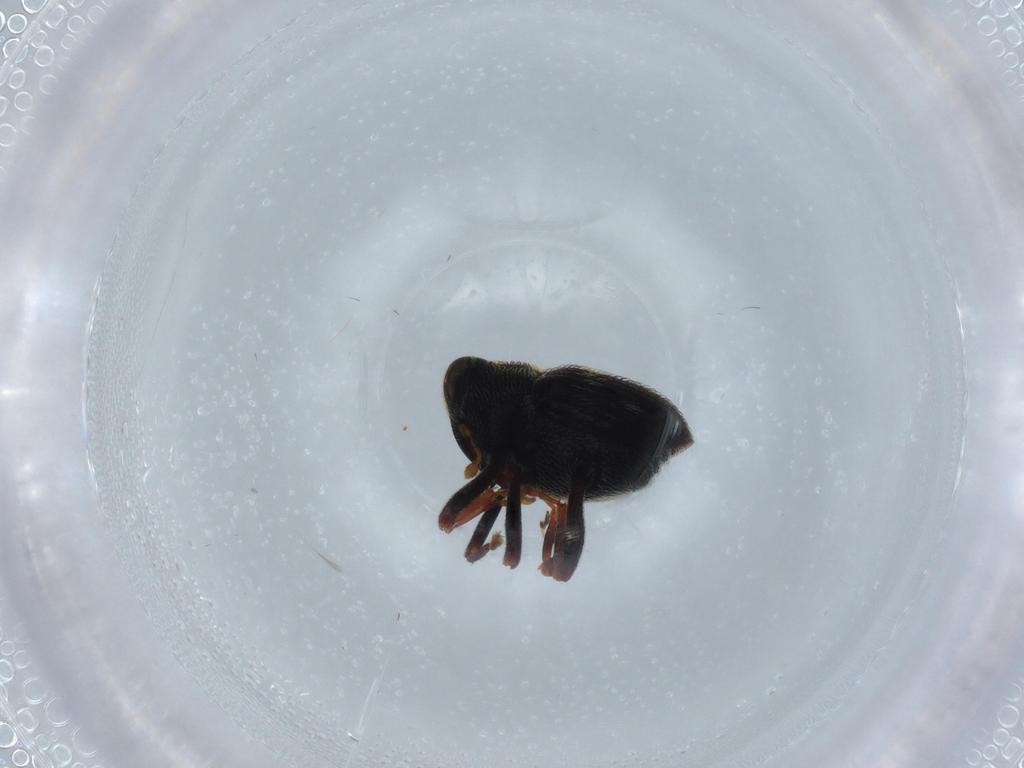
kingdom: Animalia
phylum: Arthropoda
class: Insecta
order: Coleoptera
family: Curculionidae
